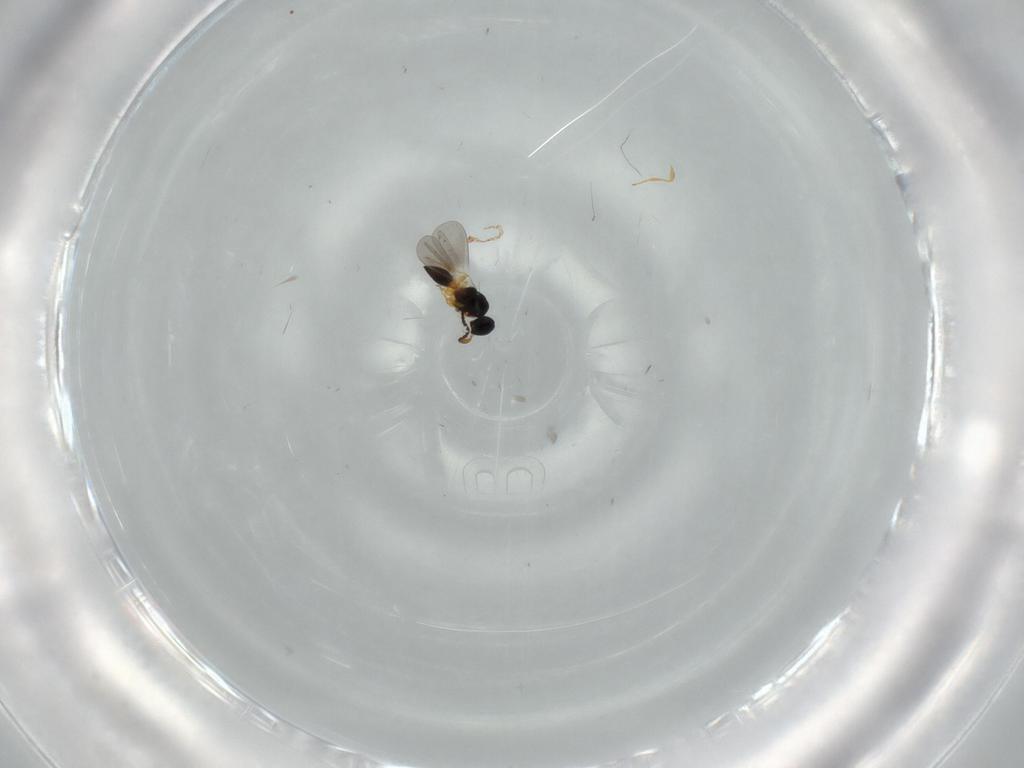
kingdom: Animalia
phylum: Arthropoda
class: Insecta
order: Hymenoptera
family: Platygastridae
